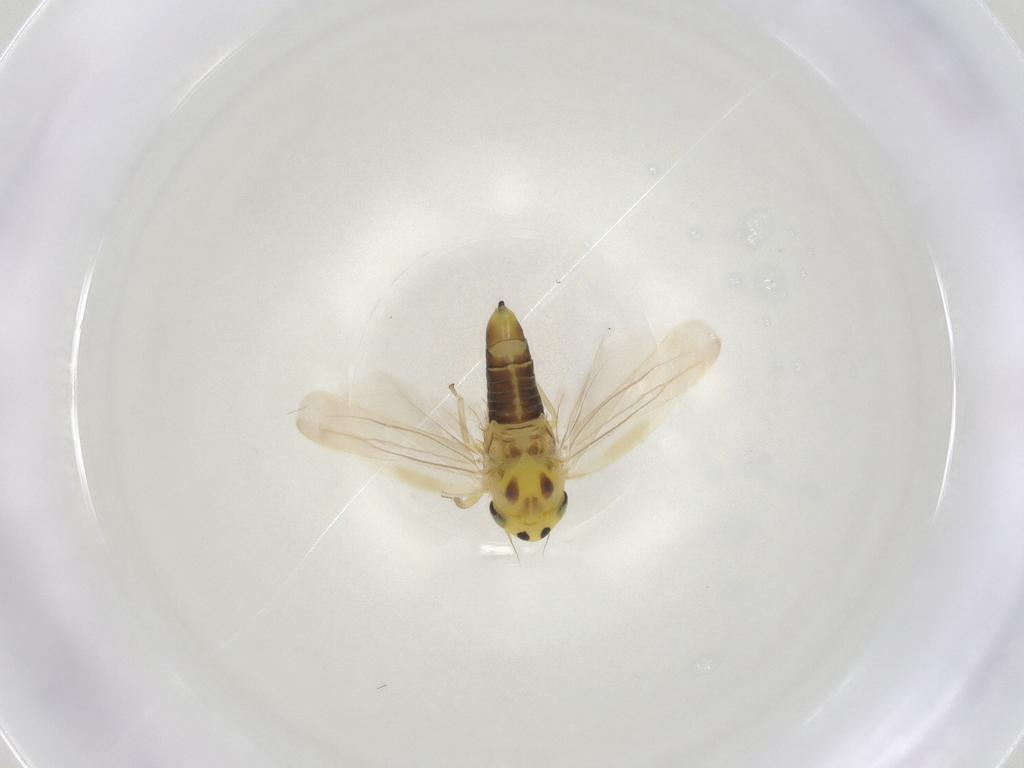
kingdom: Animalia
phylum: Arthropoda
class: Insecta
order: Hemiptera
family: Cicadellidae
